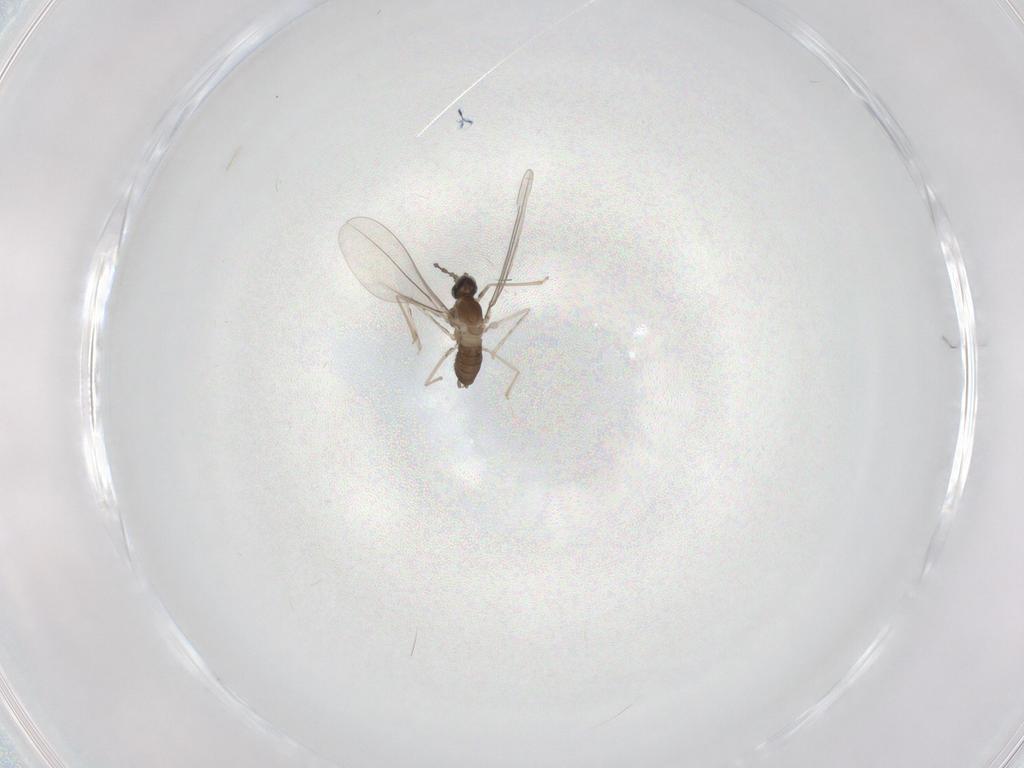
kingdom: Animalia
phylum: Arthropoda
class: Insecta
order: Diptera
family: Cecidomyiidae
